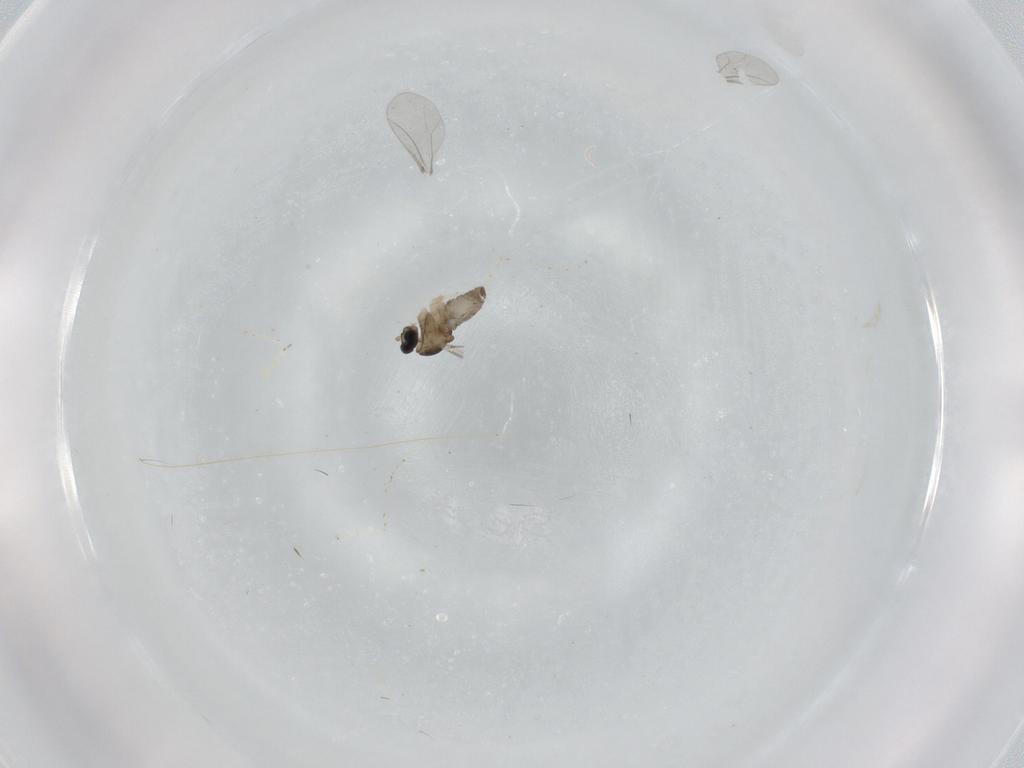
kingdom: Animalia
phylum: Arthropoda
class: Insecta
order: Diptera
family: Cecidomyiidae
